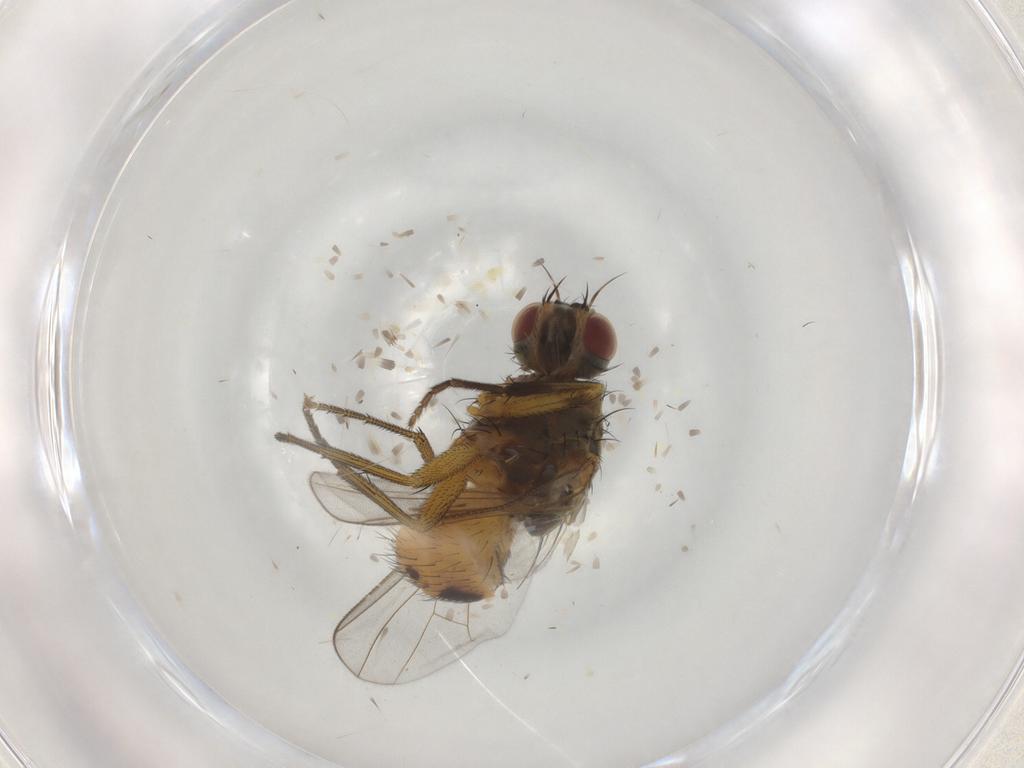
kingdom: Animalia
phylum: Arthropoda
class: Insecta
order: Diptera
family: Muscidae
